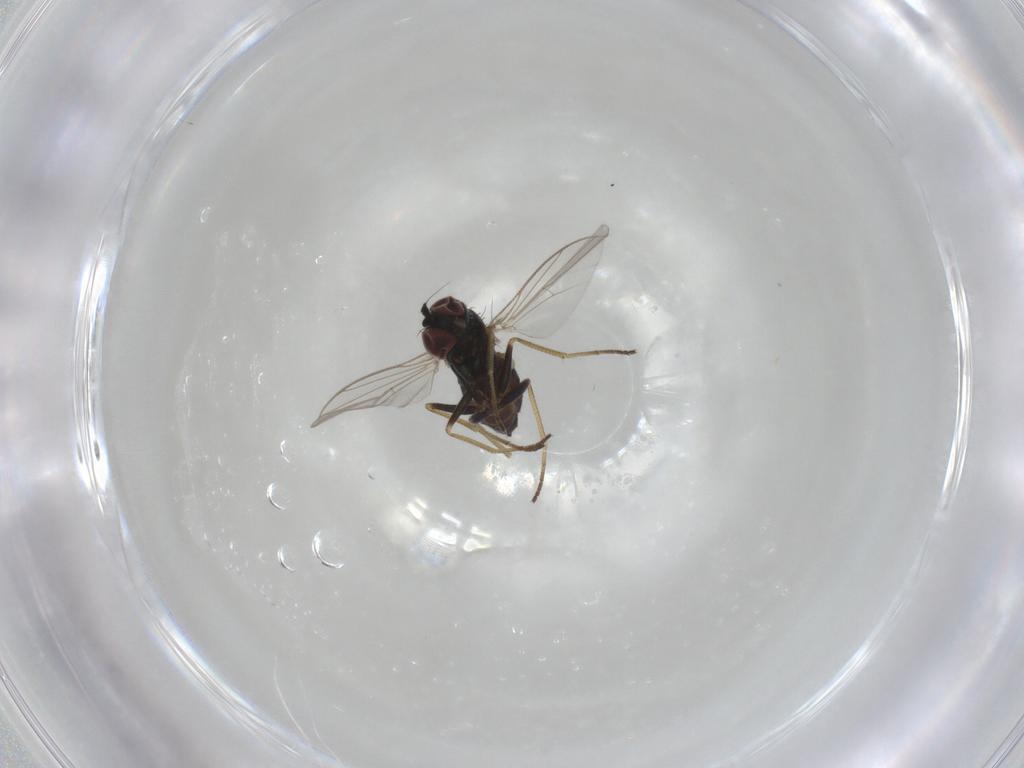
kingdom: Animalia
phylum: Arthropoda
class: Insecta
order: Diptera
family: Dolichopodidae
